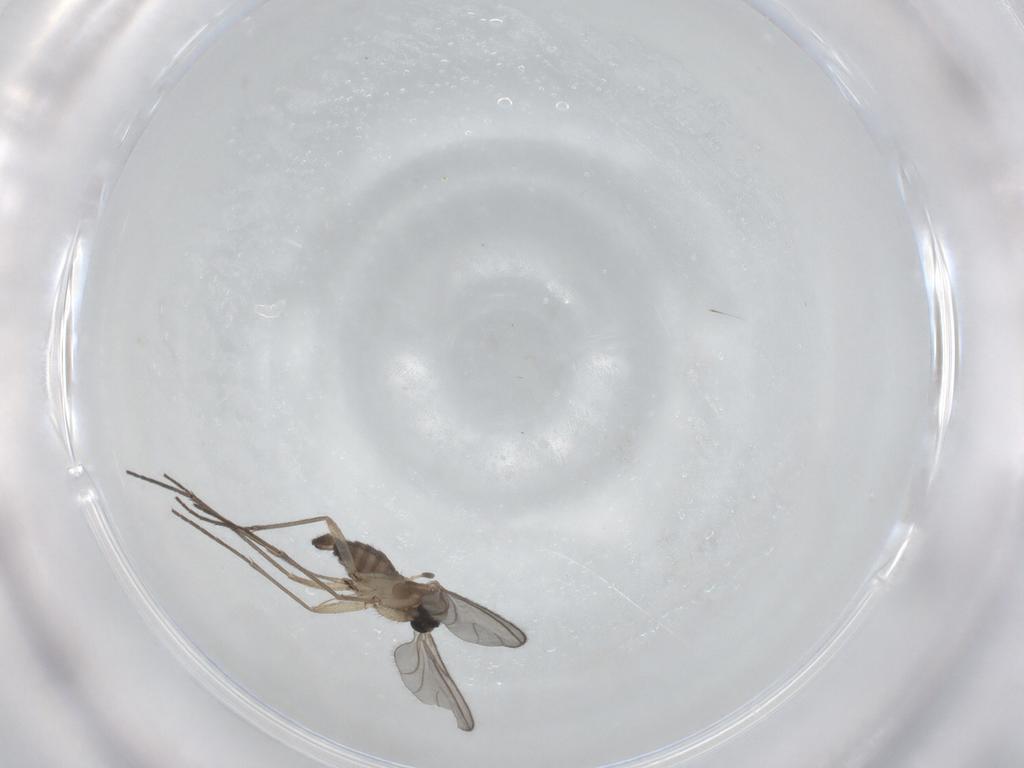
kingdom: Animalia
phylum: Arthropoda
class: Insecta
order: Diptera
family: Sciaridae
